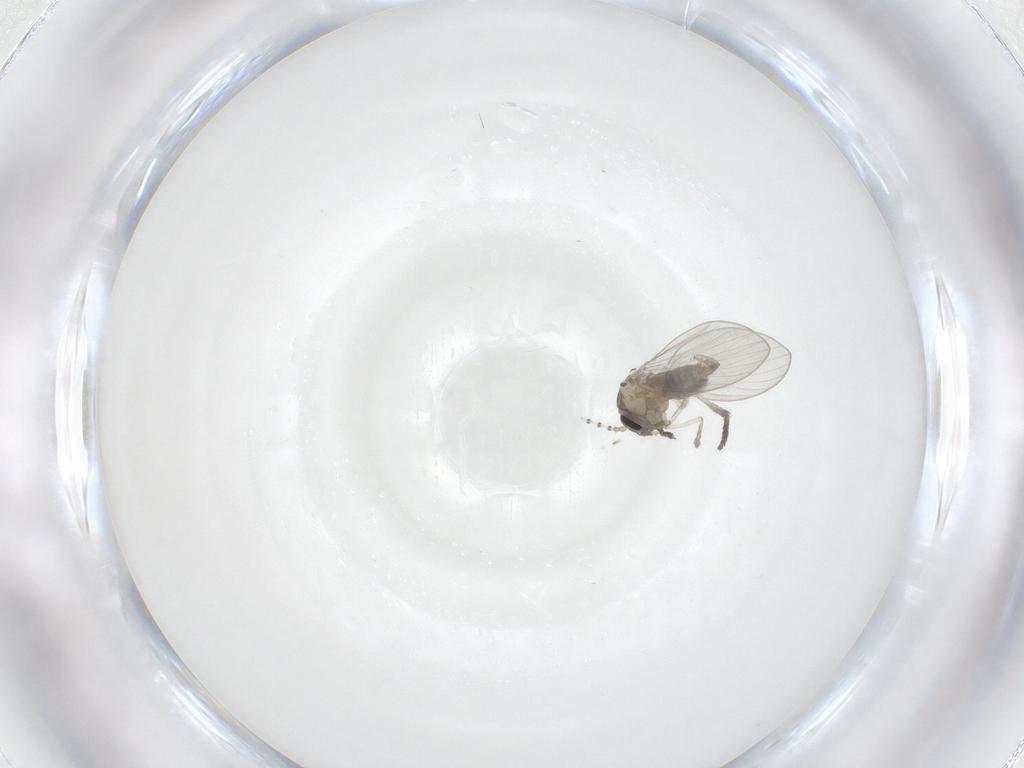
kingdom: Animalia
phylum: Arthropoda
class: Insecta
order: Diptera
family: Psychodidae
